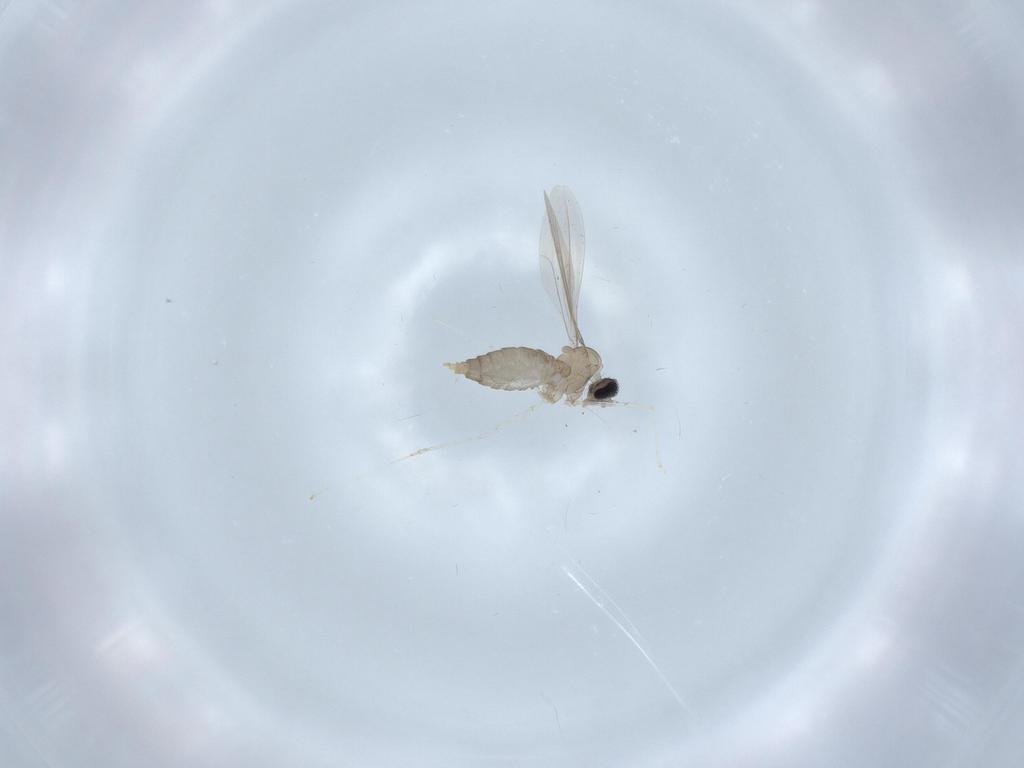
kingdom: Animalia
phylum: Arthropoda
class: Insecta
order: Diptera
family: Cecidomyiidae
